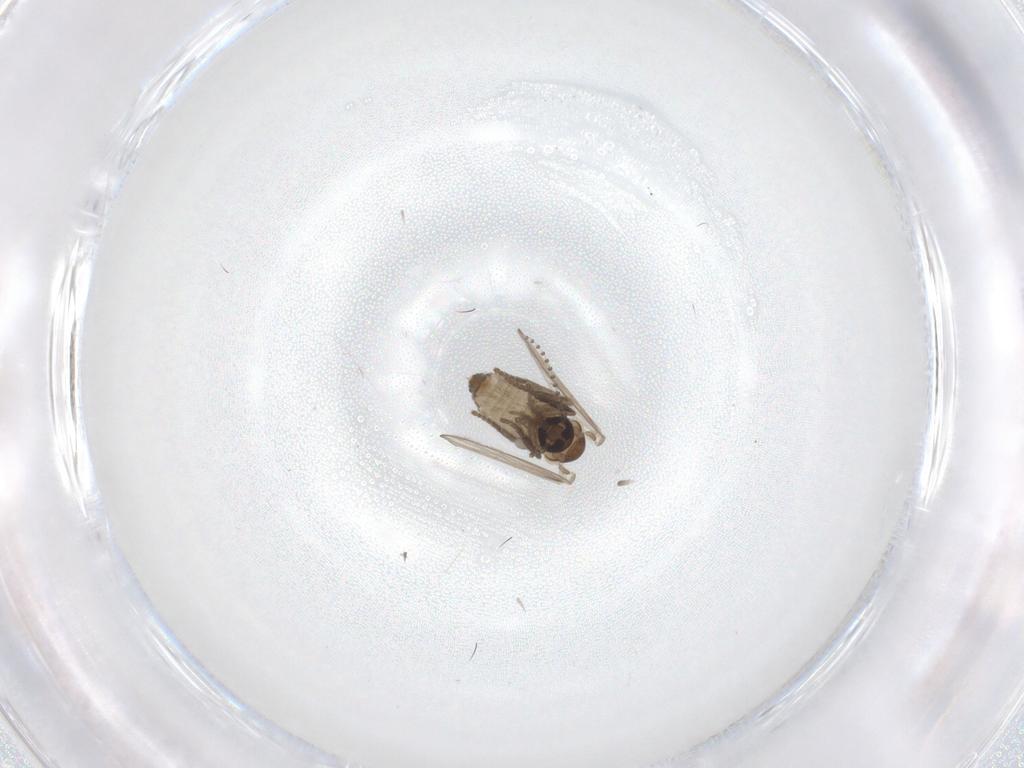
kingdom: Animalia
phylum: Arthropoda
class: Insecta
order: Diptera
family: Psychodidae
